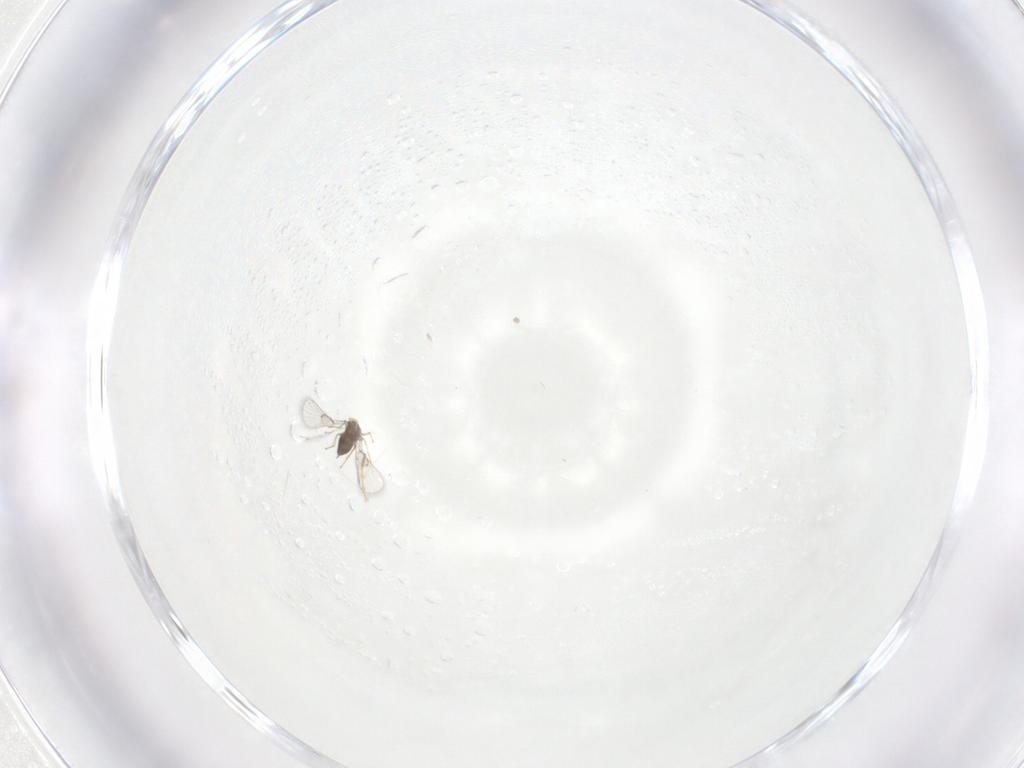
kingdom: Animalia
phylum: Arthropoda
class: Insecta
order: Hymenoptera
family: Trichogrammatidae
